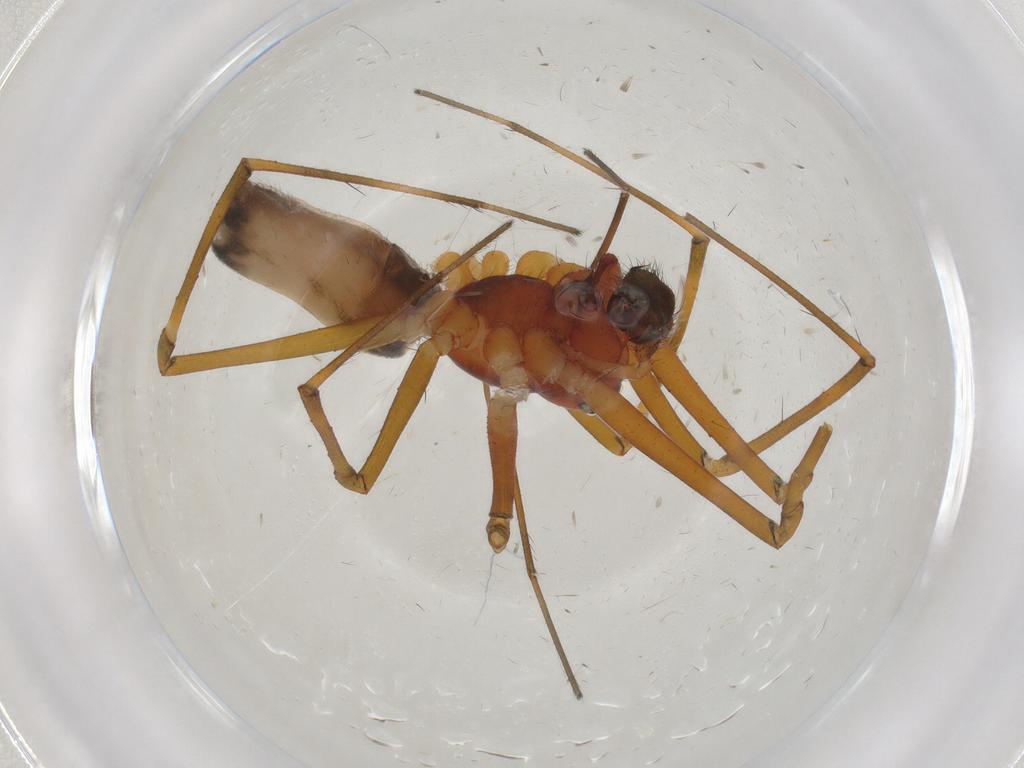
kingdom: Animalia
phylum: Arthropoda
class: Arachnida
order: Araneae
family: Linyphiidae
